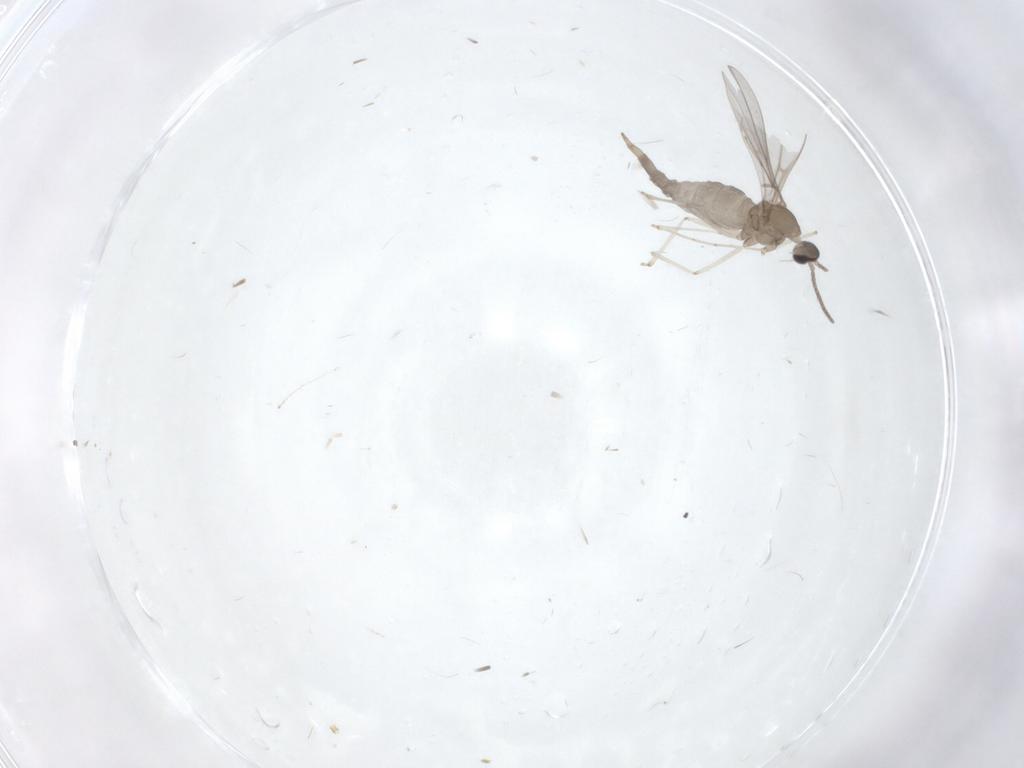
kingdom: Animalia
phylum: Arthropoda
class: Insecta
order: Diptera
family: Cecidomyiidae
